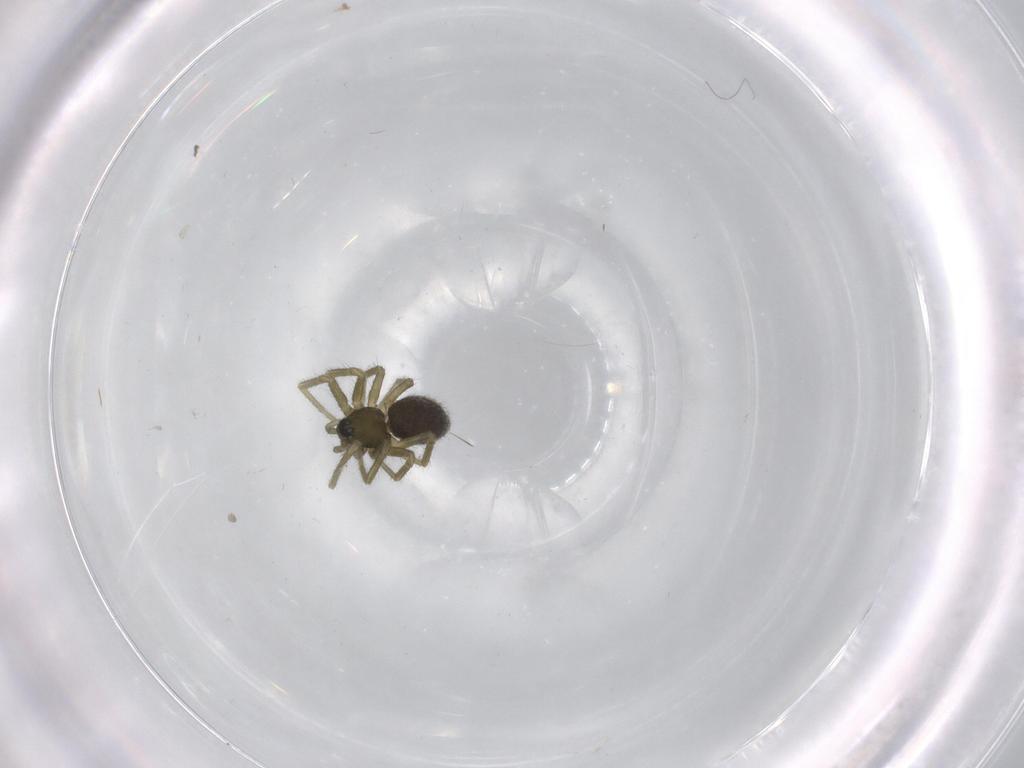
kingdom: Animalia
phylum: Arthropoda
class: Arachnida
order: Araneae
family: Linyphiidae
